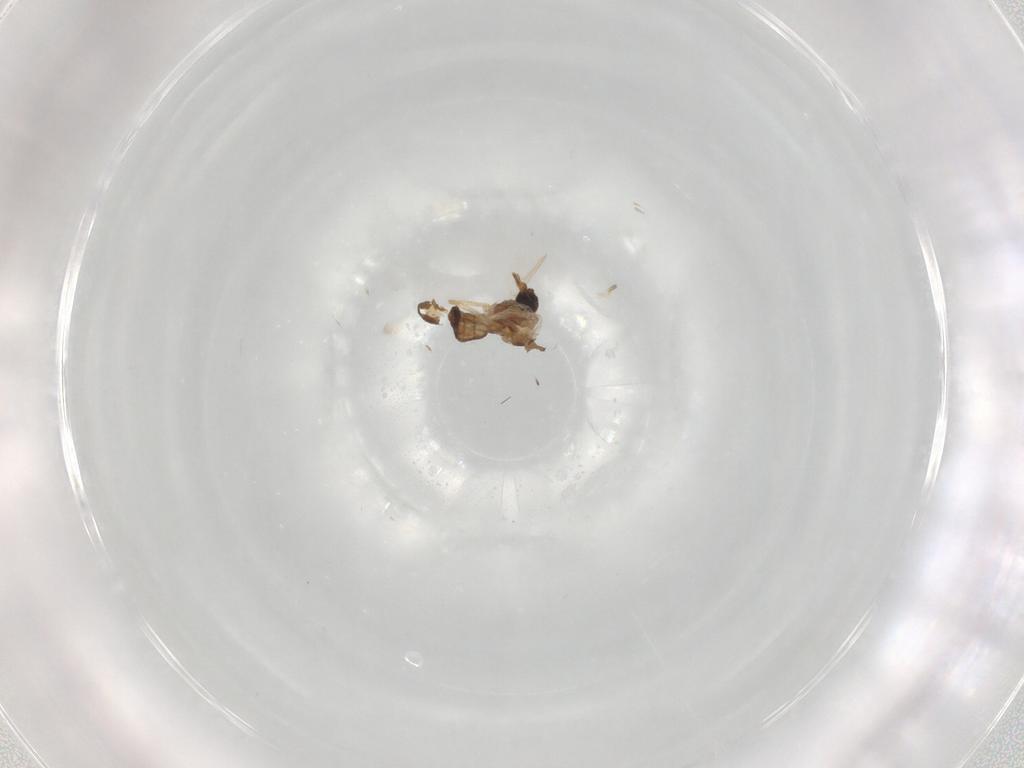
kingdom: Animalia
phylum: Arthropoda
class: Insecta
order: Diptera
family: Ceratopogonidae
